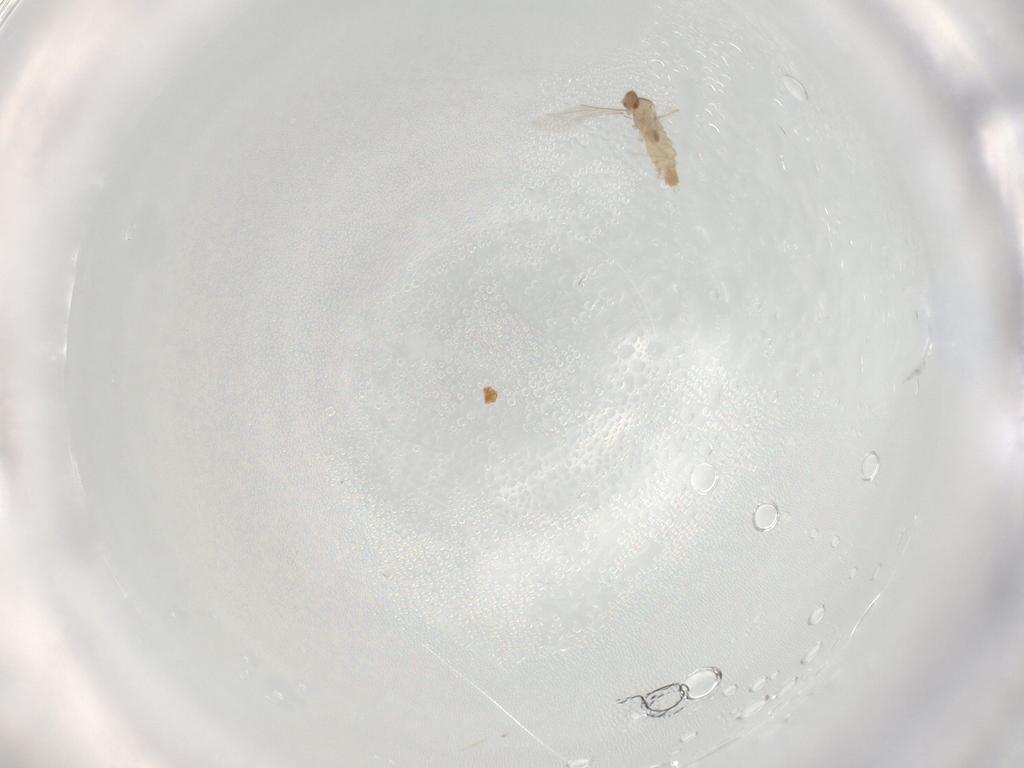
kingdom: Animalia
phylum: Arthropoda
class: Insecta
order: Diptera
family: Cecidomyiidae
